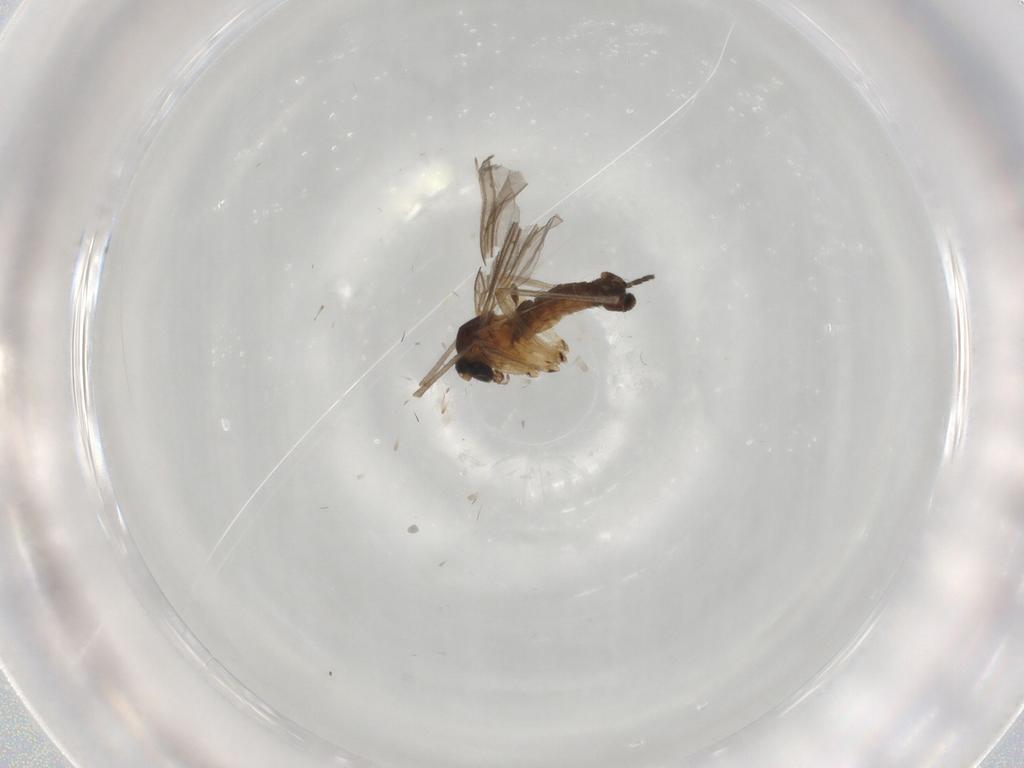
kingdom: Animalia
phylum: Arthropoda
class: Insecta
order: Diptera
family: Sciaridae
